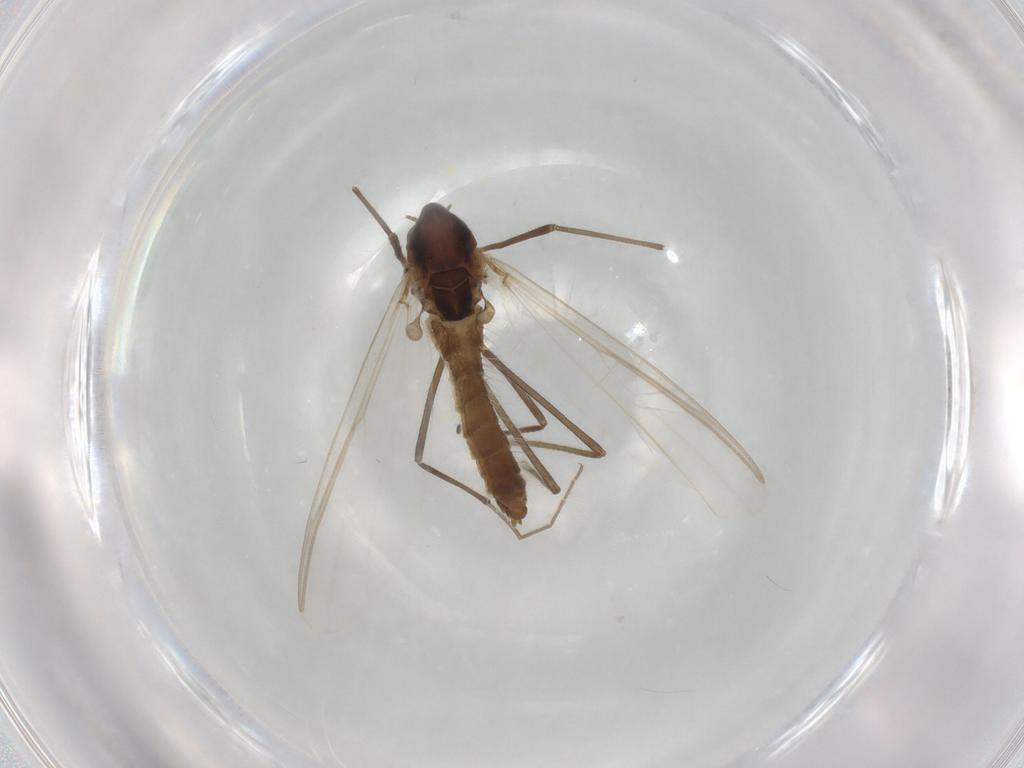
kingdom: Animalia
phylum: Arthropoda
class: Insecta
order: Diptera
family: Chironomidae
